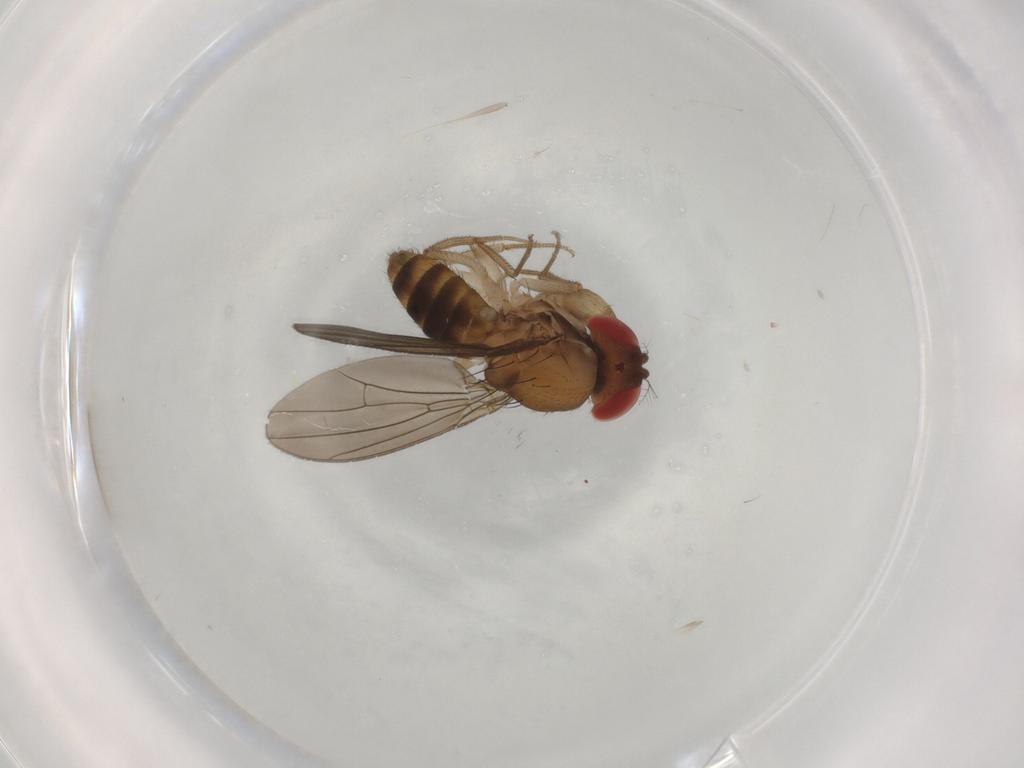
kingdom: Animalia
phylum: Arthropoda
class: Insecta
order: Diptera
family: Drosophilidae
